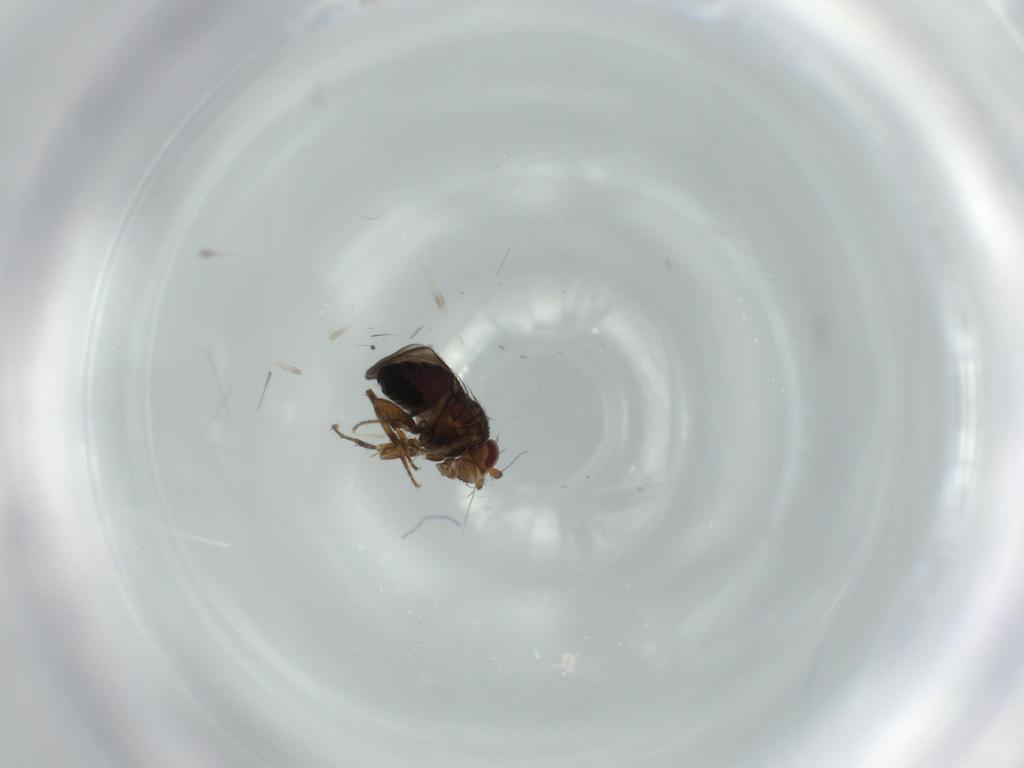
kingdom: Animalia
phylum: Arthropoda
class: Insecta
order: Diptera
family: Sphaeroceridae
